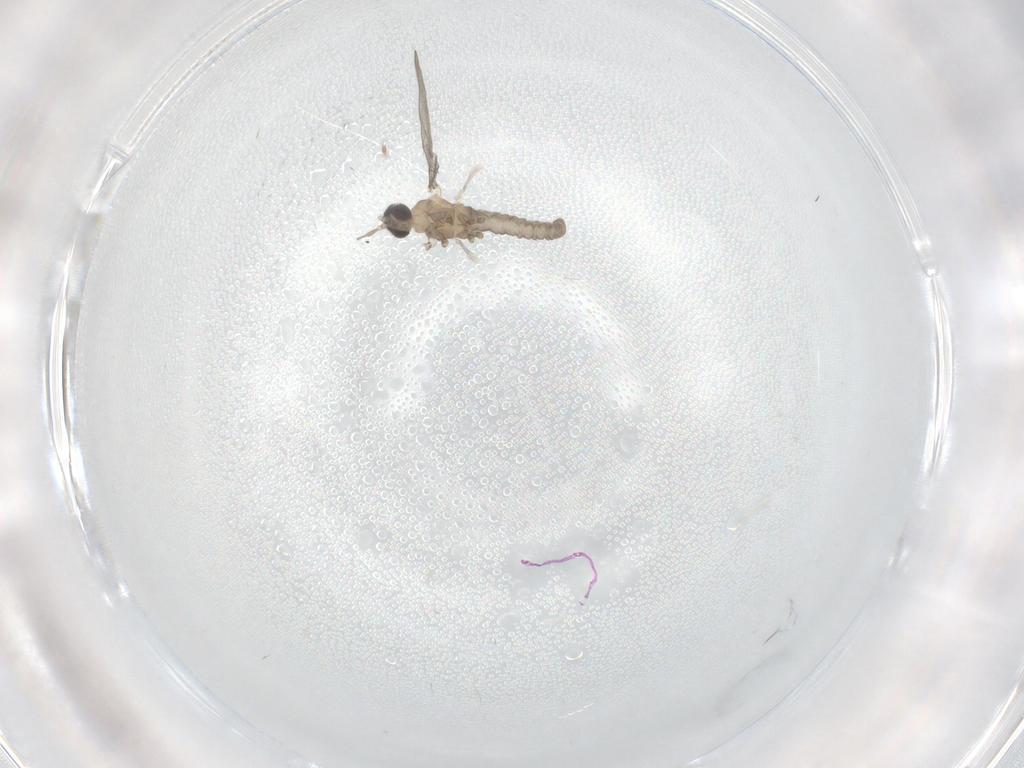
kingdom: Animalia
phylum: Arthropoda
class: Insecta
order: Diptera
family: Cecidomyiidae
